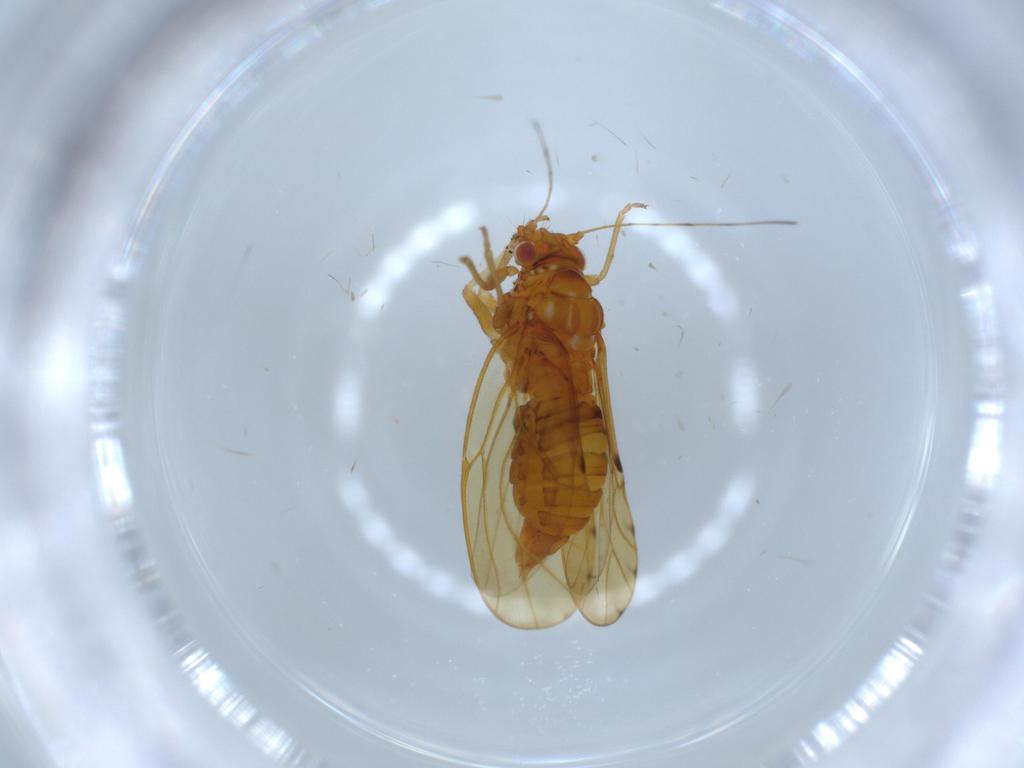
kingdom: Animalia
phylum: Arthropoda
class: Insecta
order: Hemiptera
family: Psylloidea_incertae_sedis
